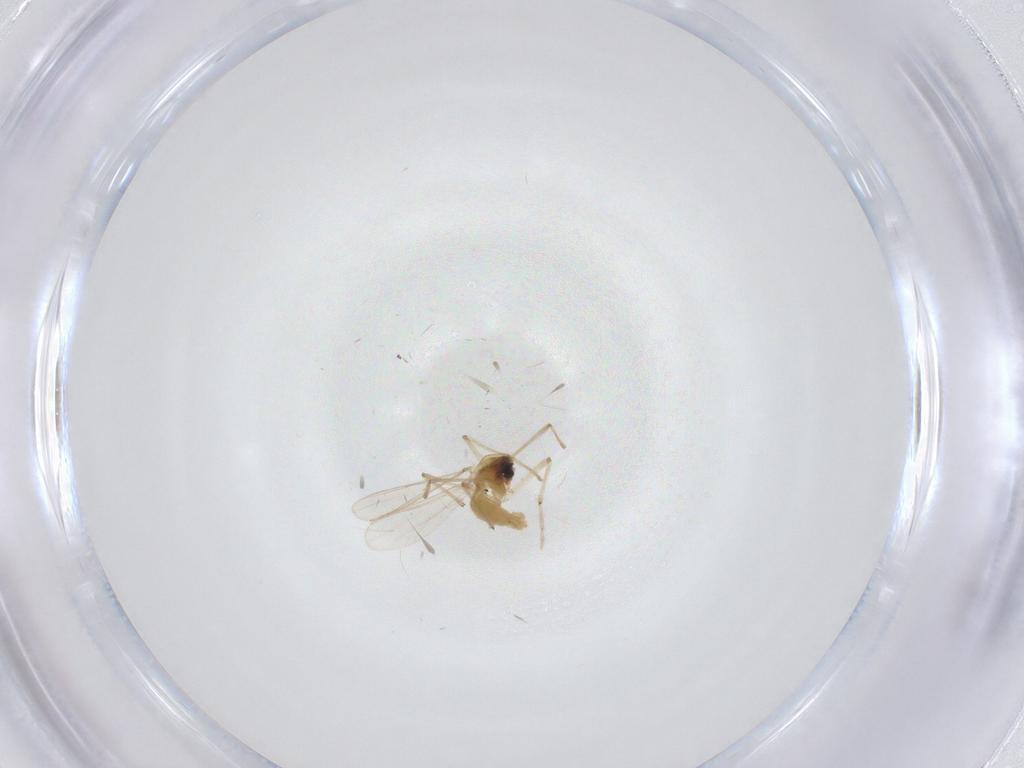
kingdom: Animalia
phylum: Arthropoda
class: Insecta
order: Diptera
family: Chironomidae
